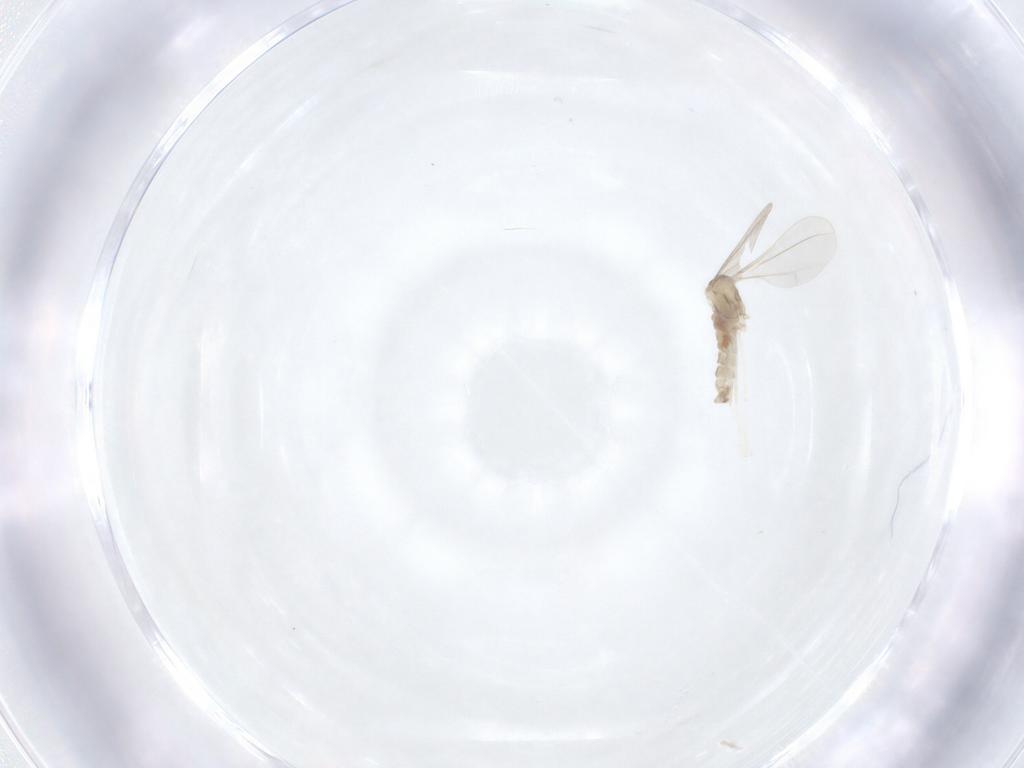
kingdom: Animalia
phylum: Arthropoda
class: Insecta
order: Diptera
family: Cecidomyiidae
